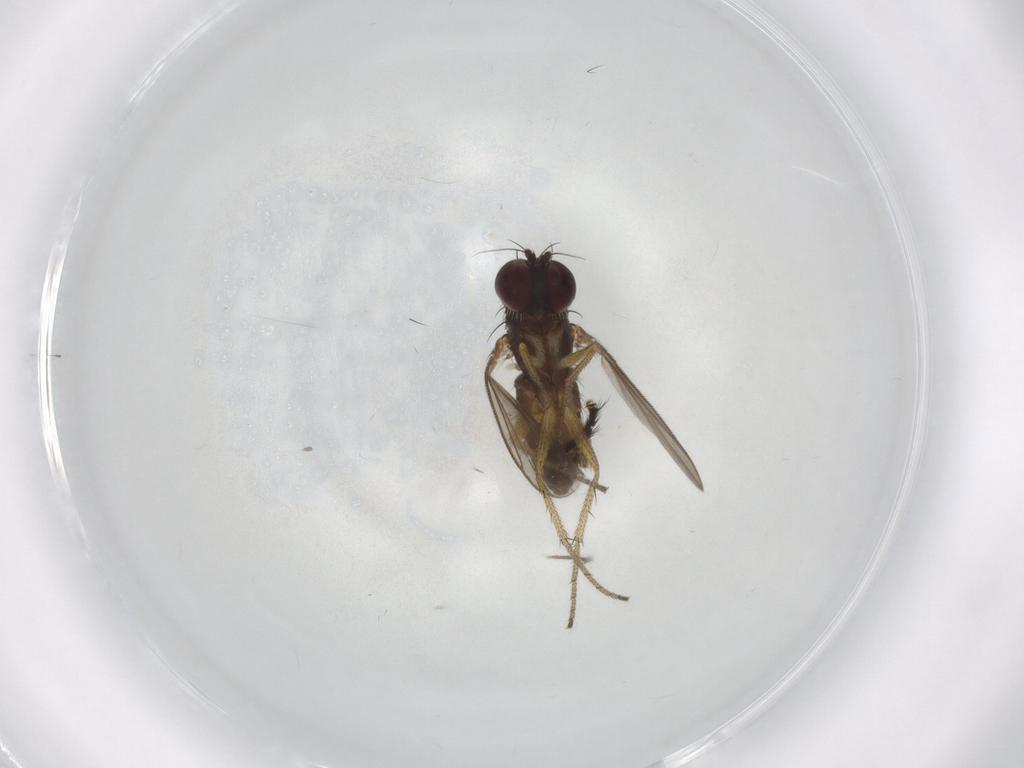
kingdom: Animalia
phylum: Arthropoda
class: Insecta
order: Diptera
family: Chironomidae
